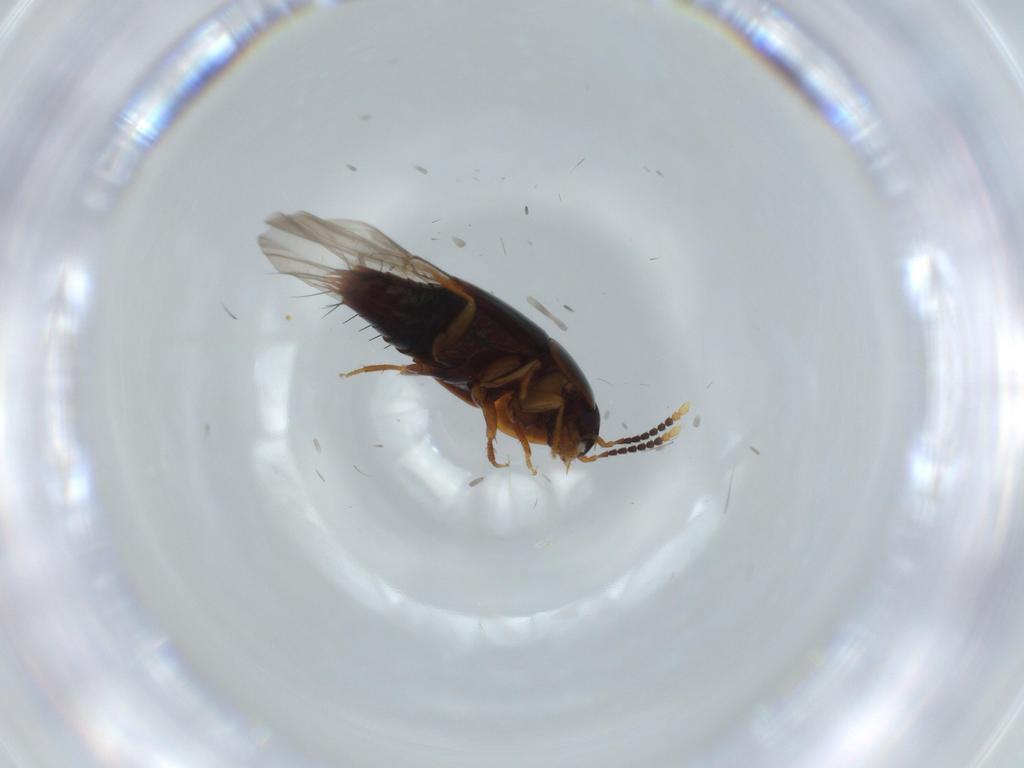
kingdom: Animalia
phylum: Arthropoda
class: Insecta
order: Coleoptera
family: Staphylinidae
